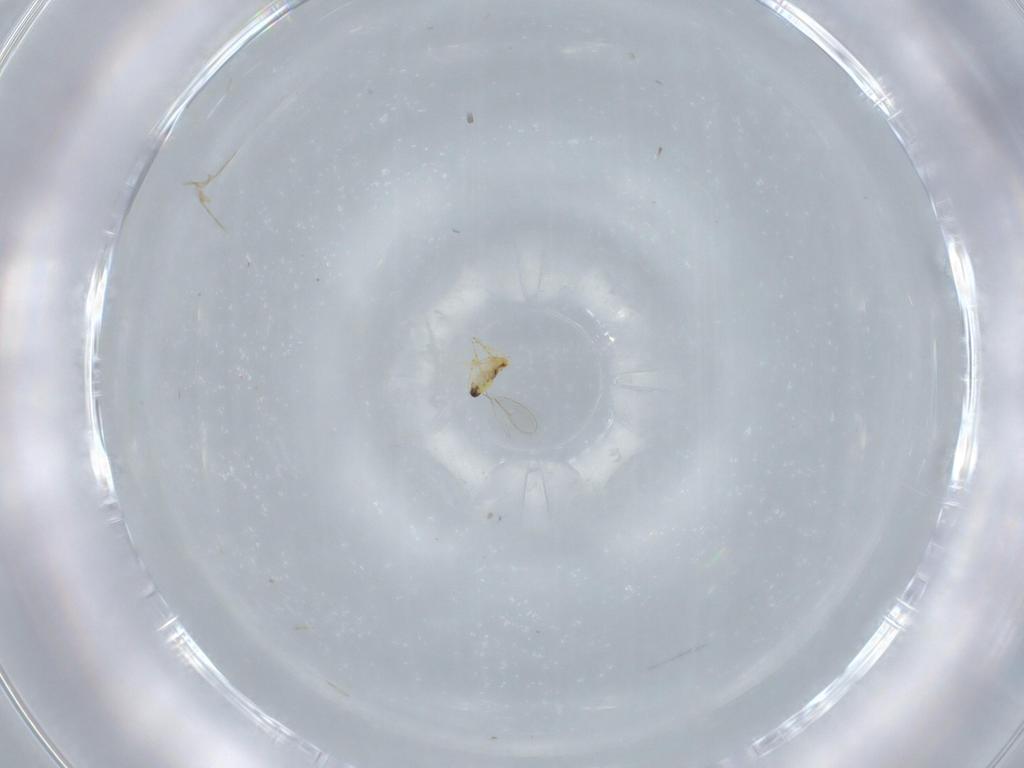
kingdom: Animalia
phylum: Arthropoda
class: Insecta
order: Hymenoptera
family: Aphelinidae
